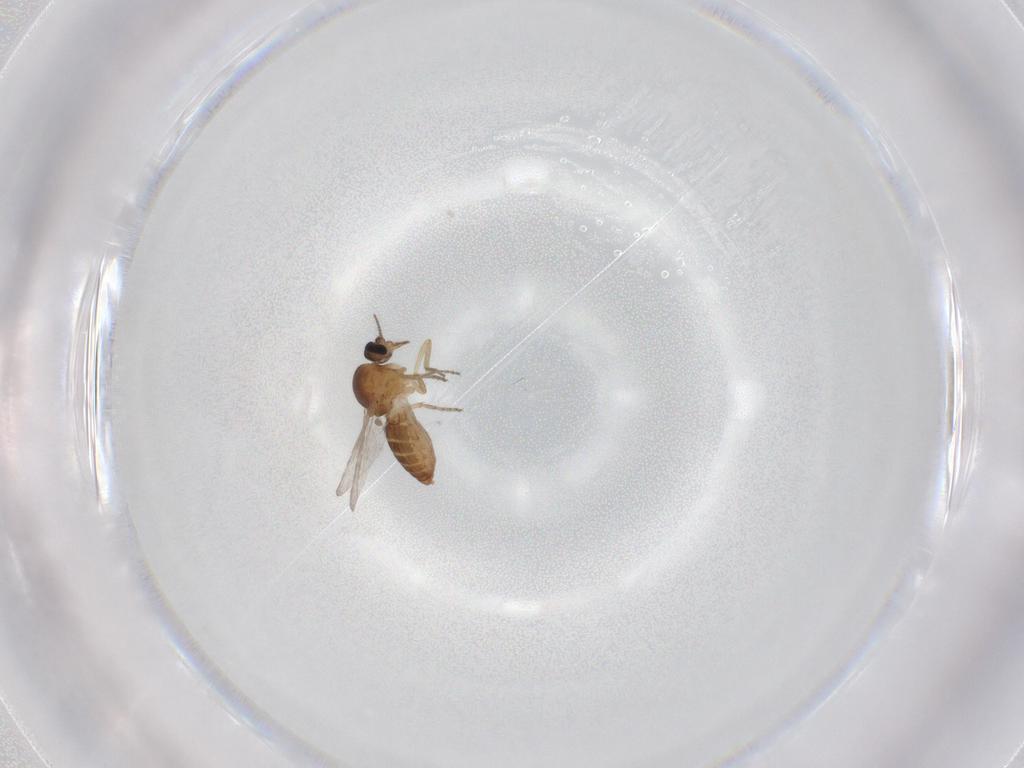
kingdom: Animalia
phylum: Arthropoda
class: Insecta
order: Diptera
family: Ceratopogonidae
